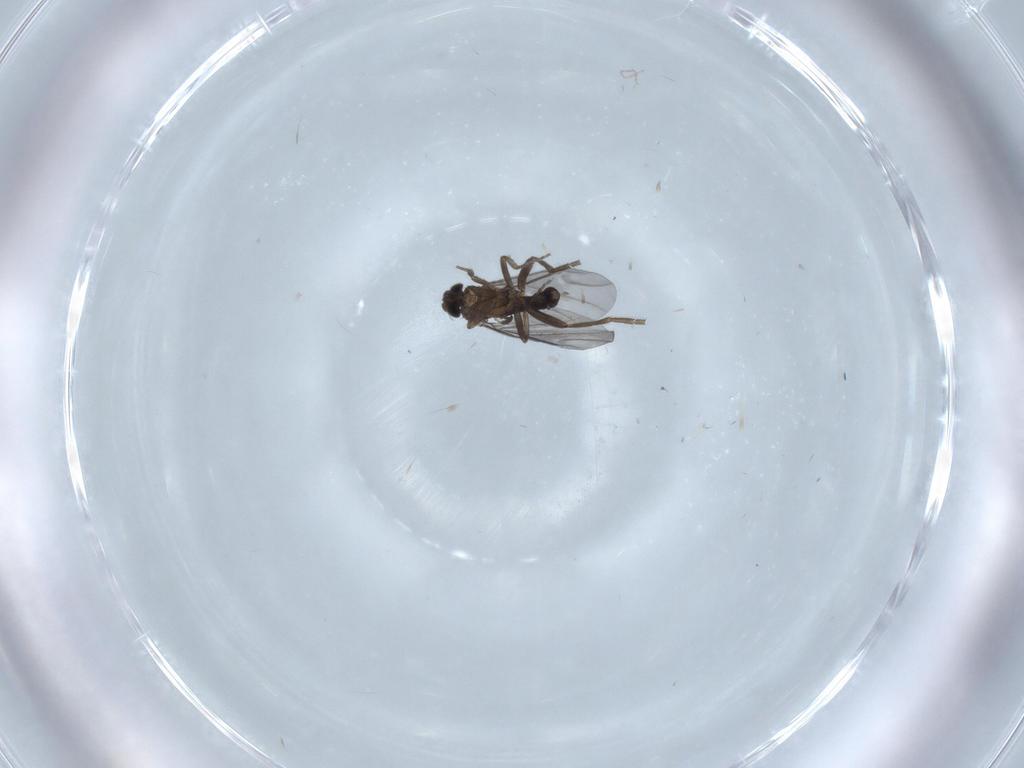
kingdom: Animalia
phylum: Arthropoda
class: Insecta
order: Diptera
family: Chironomidae
